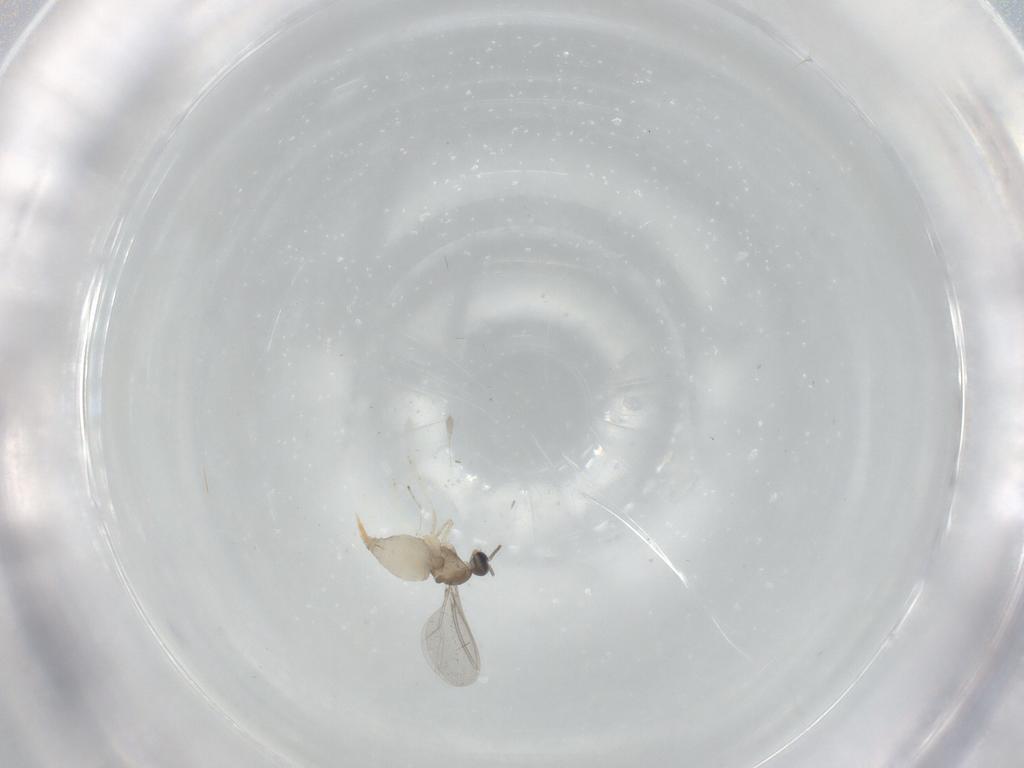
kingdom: Animalia
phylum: Arthropoda
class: Insecta
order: Diptera
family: Cecidomyiidae
